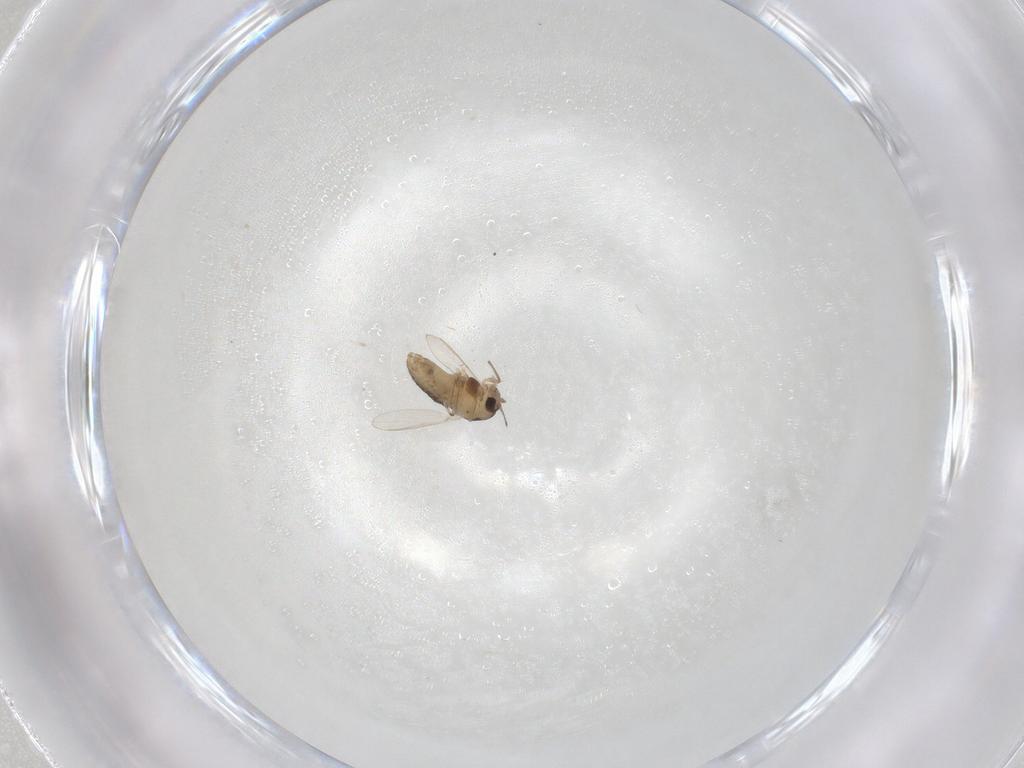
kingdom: Animalia
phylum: Arthropoda
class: Insecta
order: Diptera
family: Chironomidae
